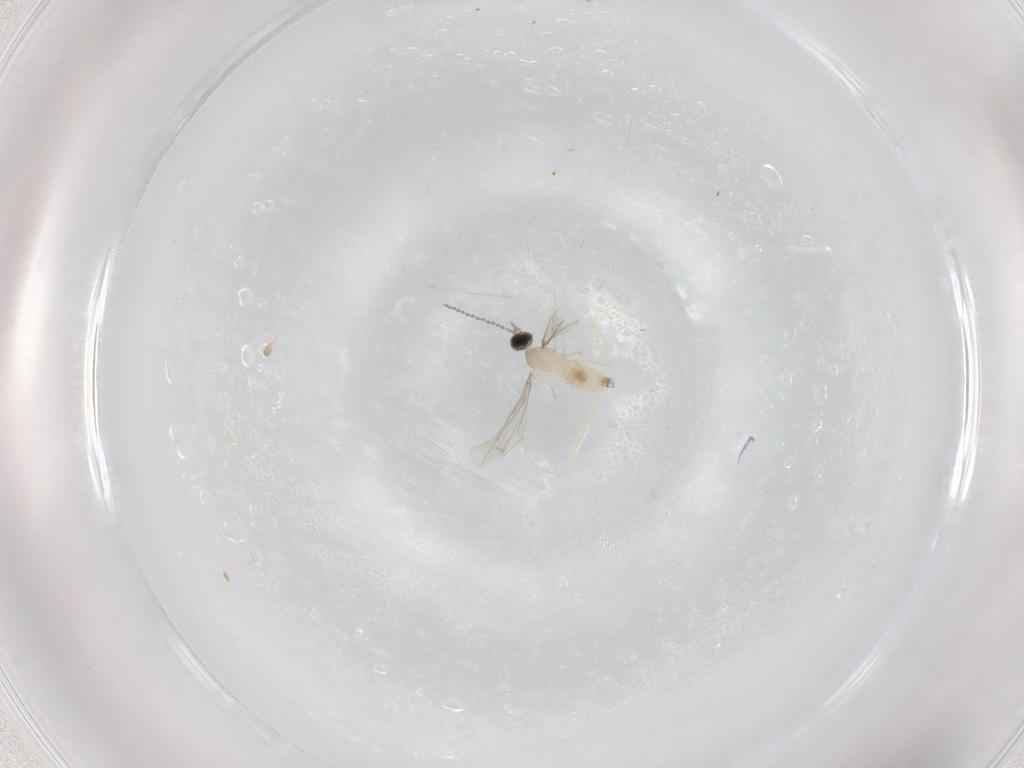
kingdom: Animalia
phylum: Arthropoda
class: Insecta
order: Diptera
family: Cecidomyiidae
